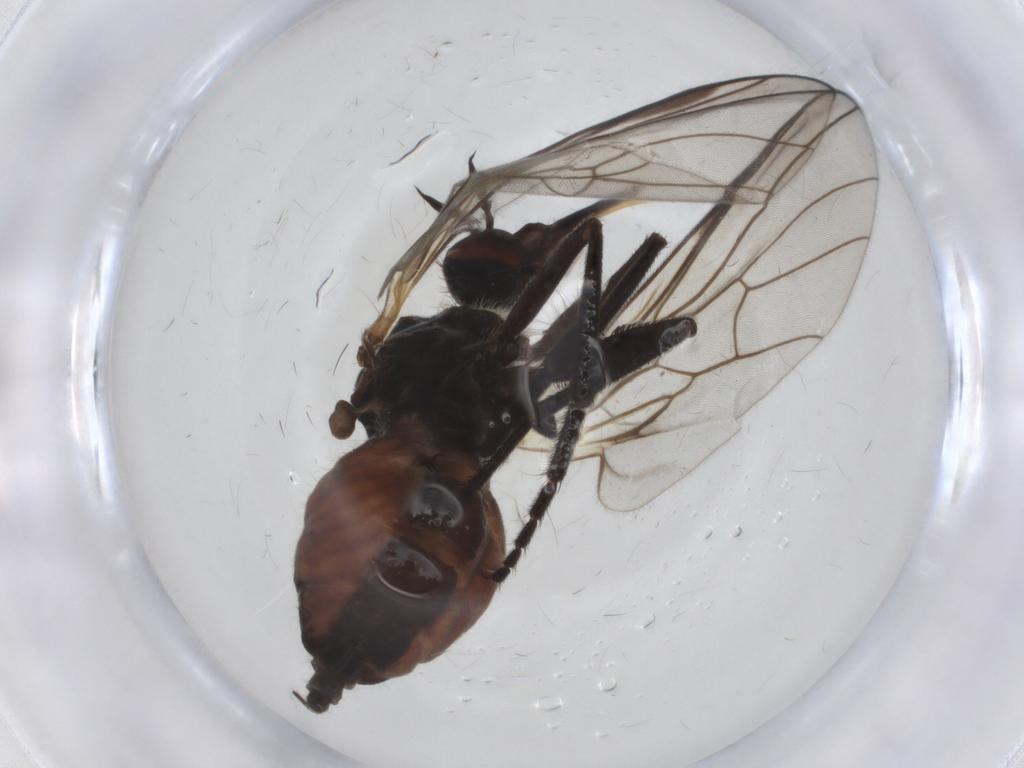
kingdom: Animalia
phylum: Arthropoda
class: Insecta
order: Diptera
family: Empididae
